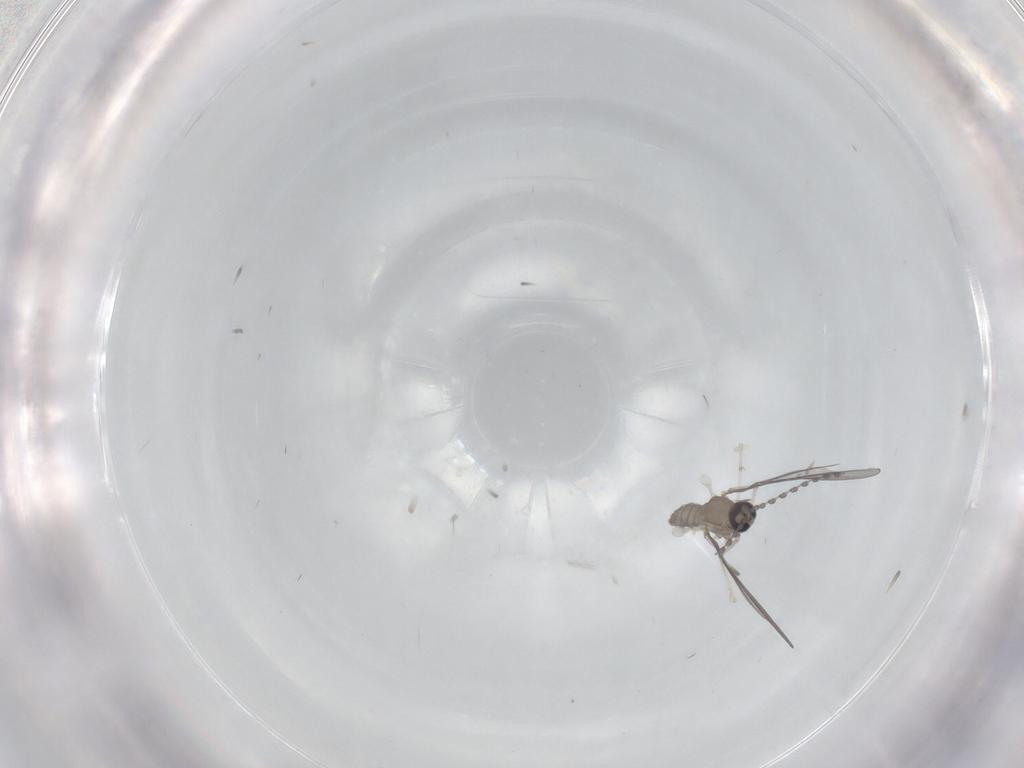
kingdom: Animalia
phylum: Arthropoda
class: Insecta
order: Diptera
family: Cecidomyiidae
